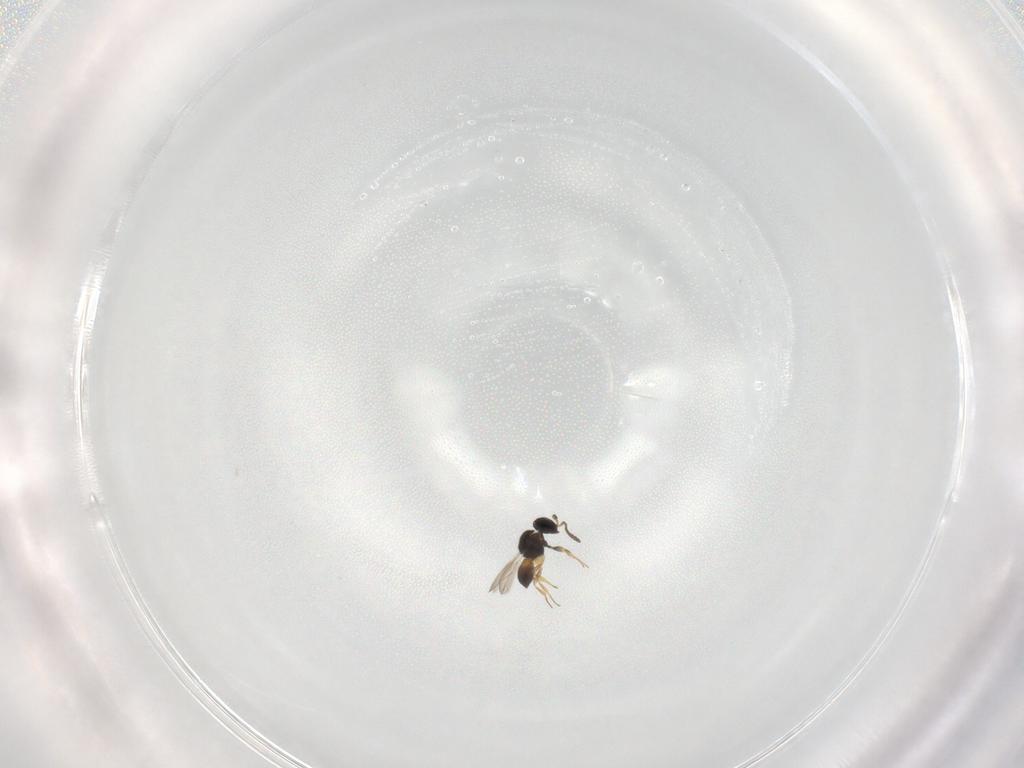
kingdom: Animalia
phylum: Arthropoda
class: Insecta
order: Hymenoptera
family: Scelionidae
